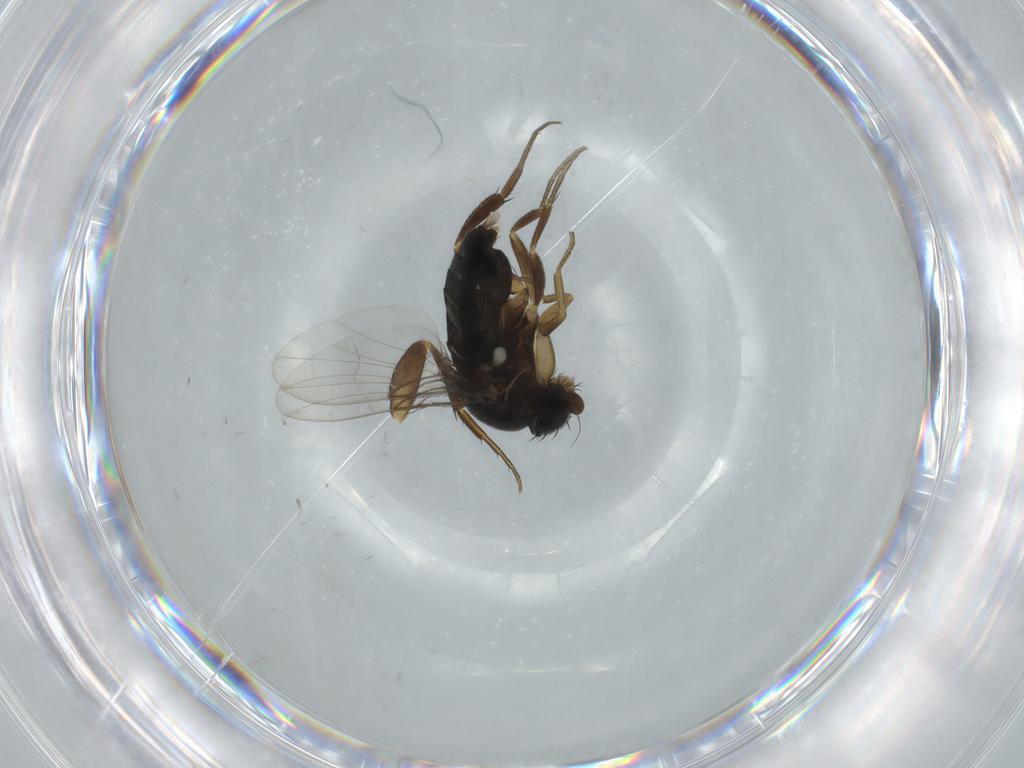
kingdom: Animalia
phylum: Arthropoda
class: Insecta
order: Diptera
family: Phoridae
